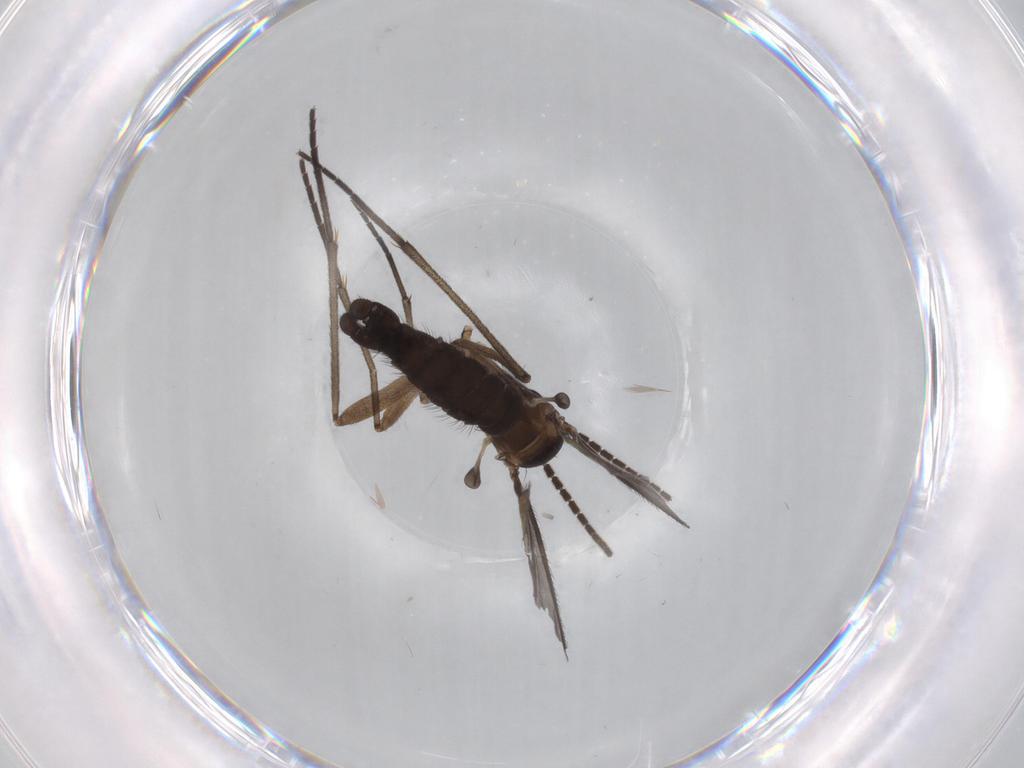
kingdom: Animalia
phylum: Arthropoda
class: Insecta
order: Diptera
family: Sciaridae
